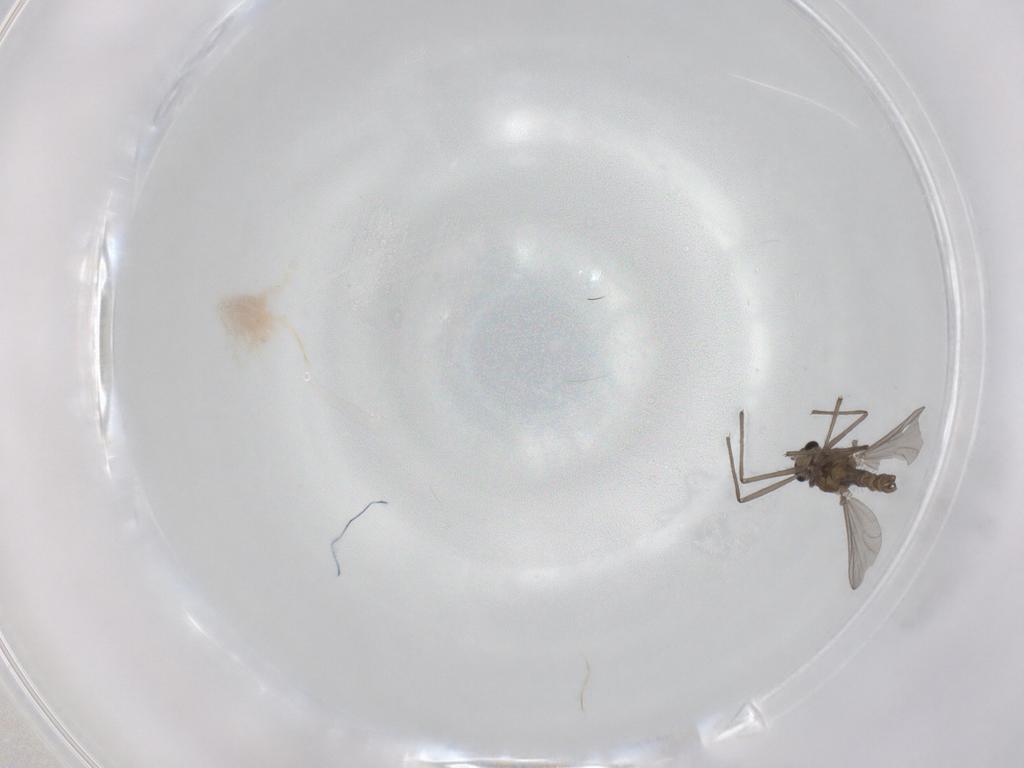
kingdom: Animalia
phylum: Arthropoda
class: Insecta
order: Diptera
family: Chironomidae
